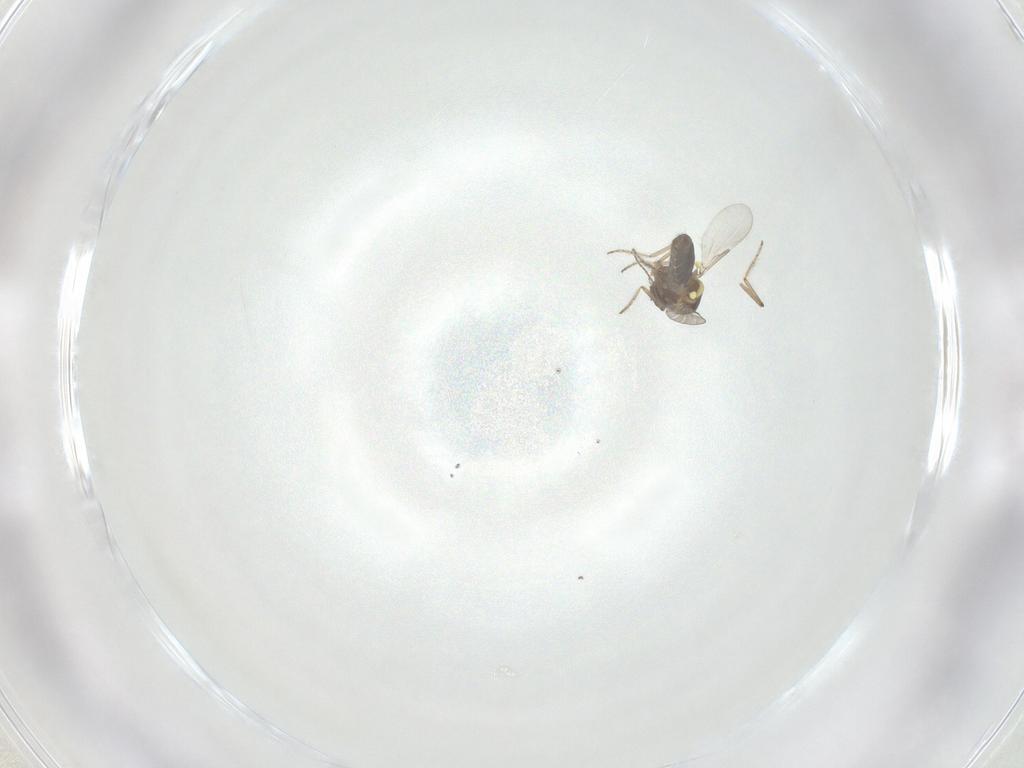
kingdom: Animalia
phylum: Arthropoda
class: Insecta
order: Diptera
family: Ceratopogonidae
